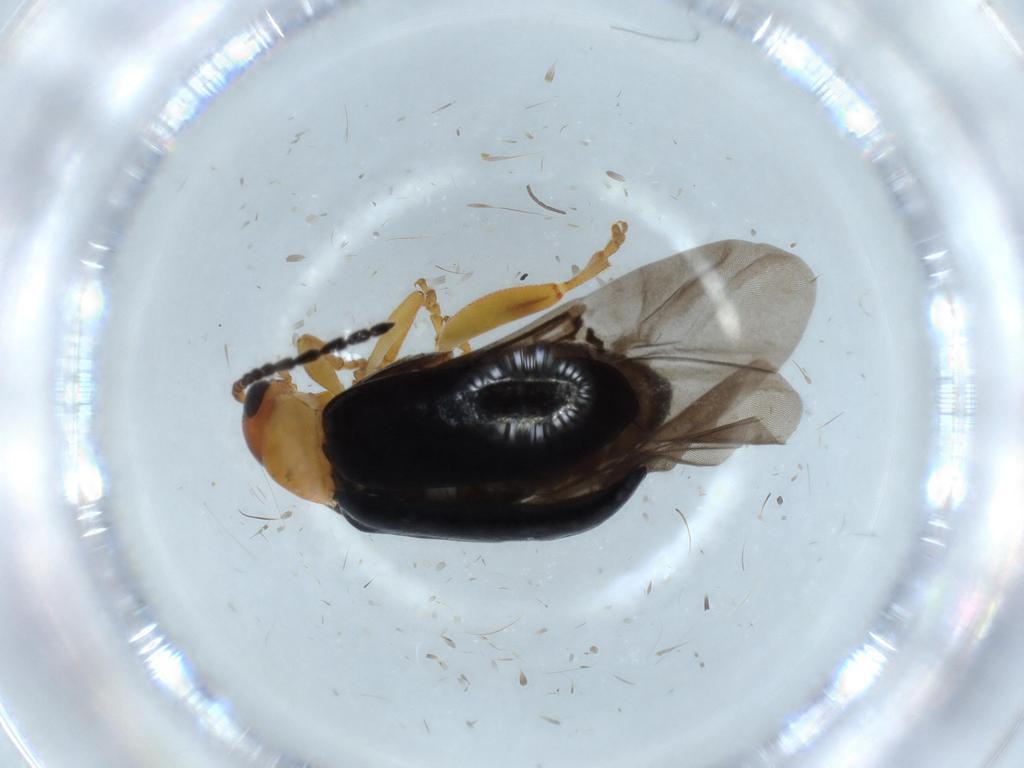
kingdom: Animalia
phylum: Arthropoda
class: Insecta
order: Coleoptera
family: Chrysomelidae
